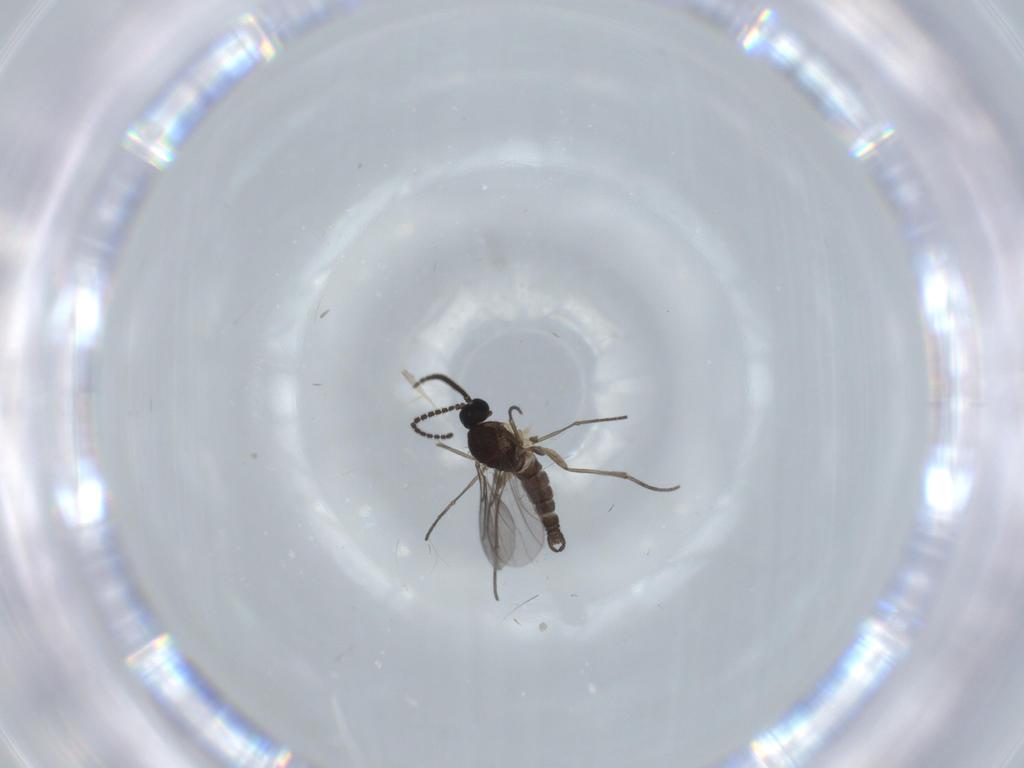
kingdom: Animalia
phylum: Arthropoda
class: Insecta
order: Diptera
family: Sciaridae
